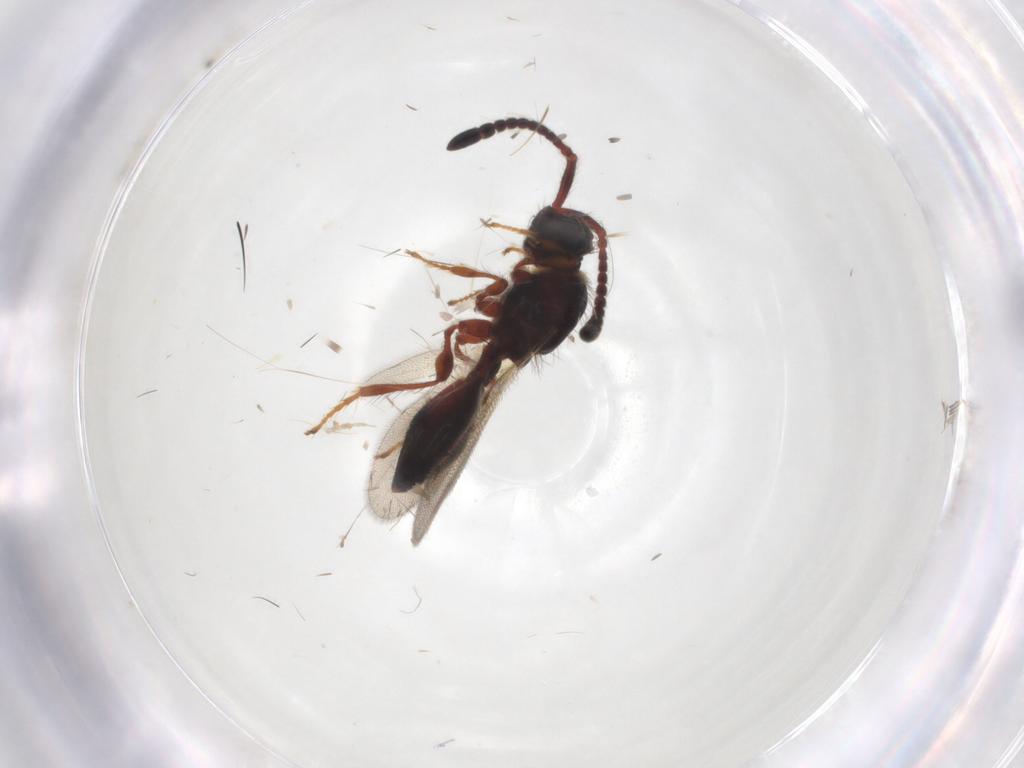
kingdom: Animalia
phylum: Arthropoda
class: Insecta
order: Hymenoptera
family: Diapriidae
